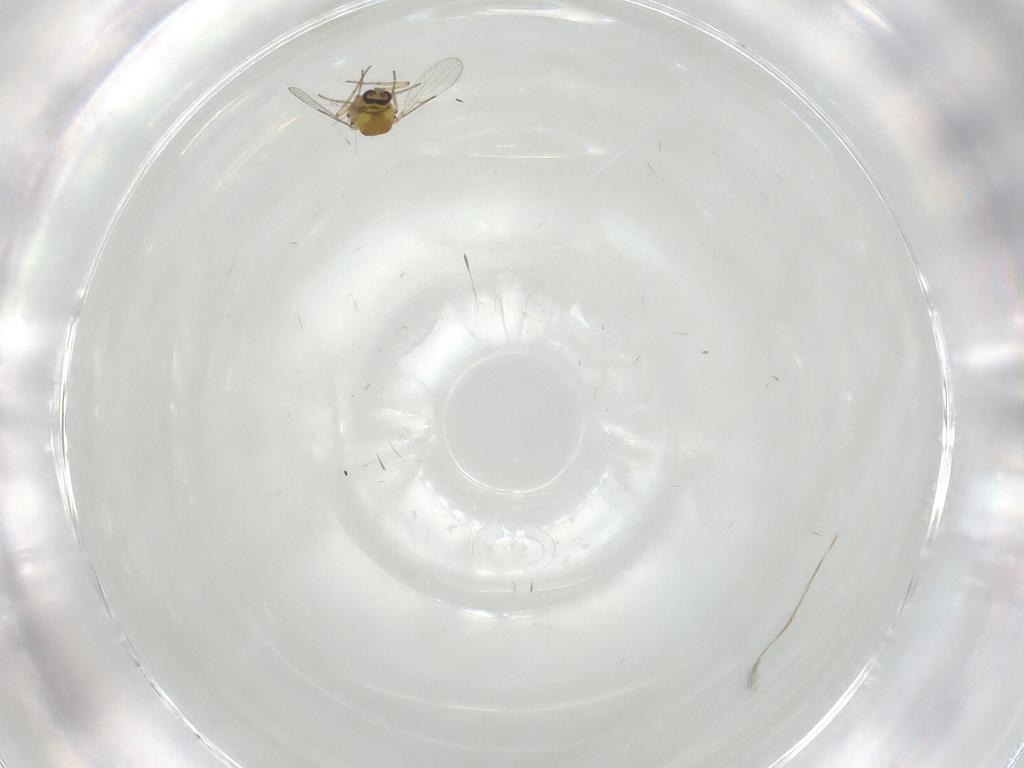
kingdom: Animalia
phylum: Arthropoda
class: Insecta
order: Diptera
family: Ceratopogonidae
